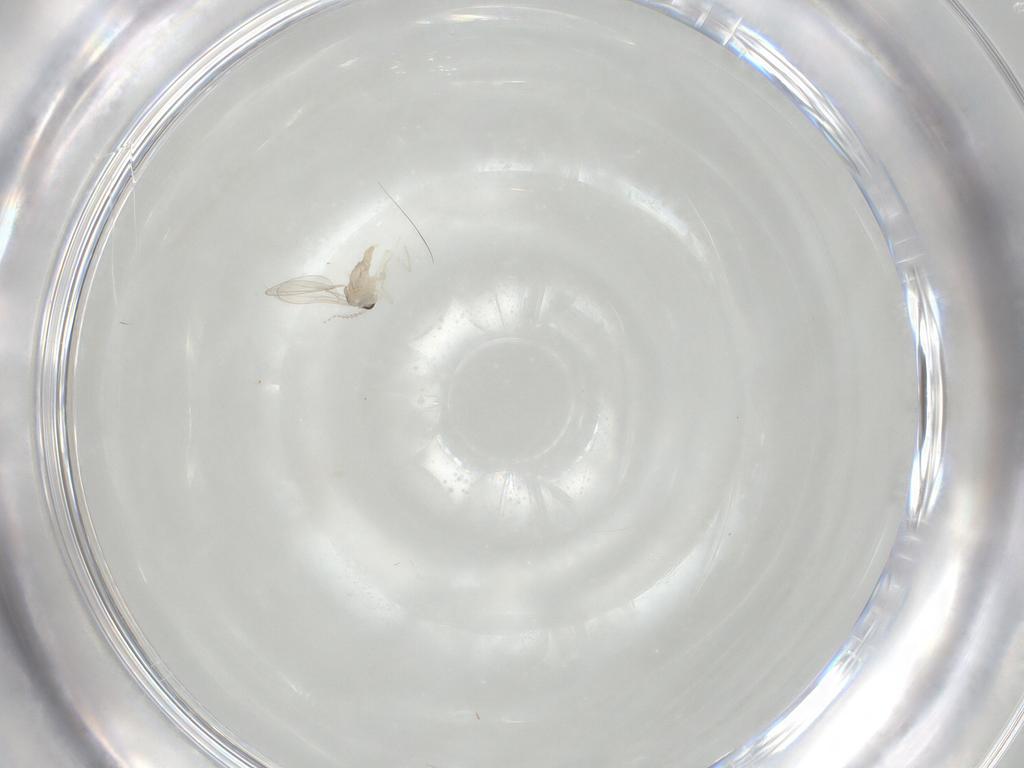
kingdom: Animalia
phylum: Arthropoda
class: Insecta
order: Diptera
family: Cecidomyiidae
